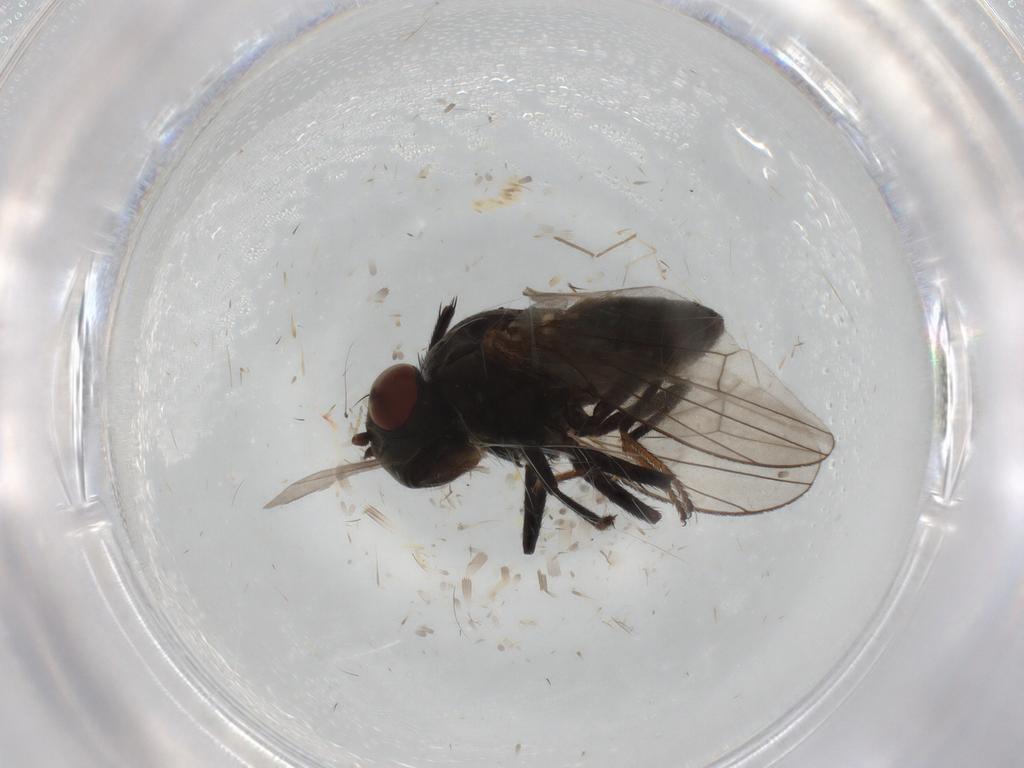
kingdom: Animalia
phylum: Arthropoda
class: Insecta
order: Diptera
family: Ephydridae
